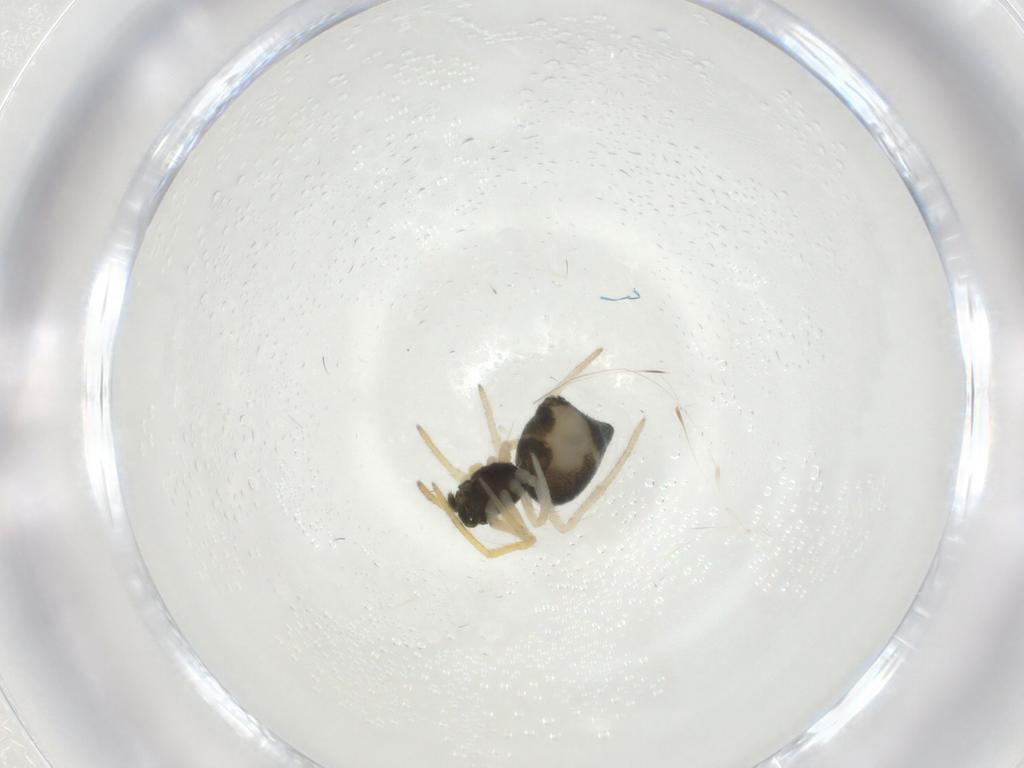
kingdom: Animalia
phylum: Arthropoda
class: Arachnida
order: Araneae
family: Theridiidae
